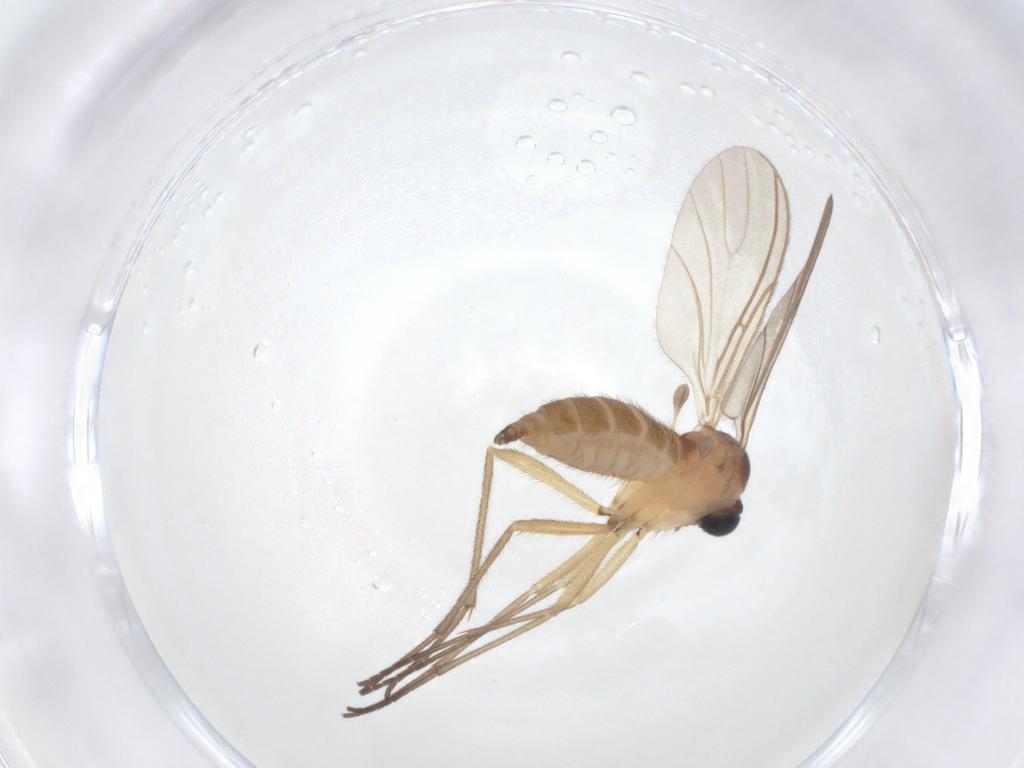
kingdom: Animalia
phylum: Arthropoda
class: Insecta
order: Diptera
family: Sciaridae
